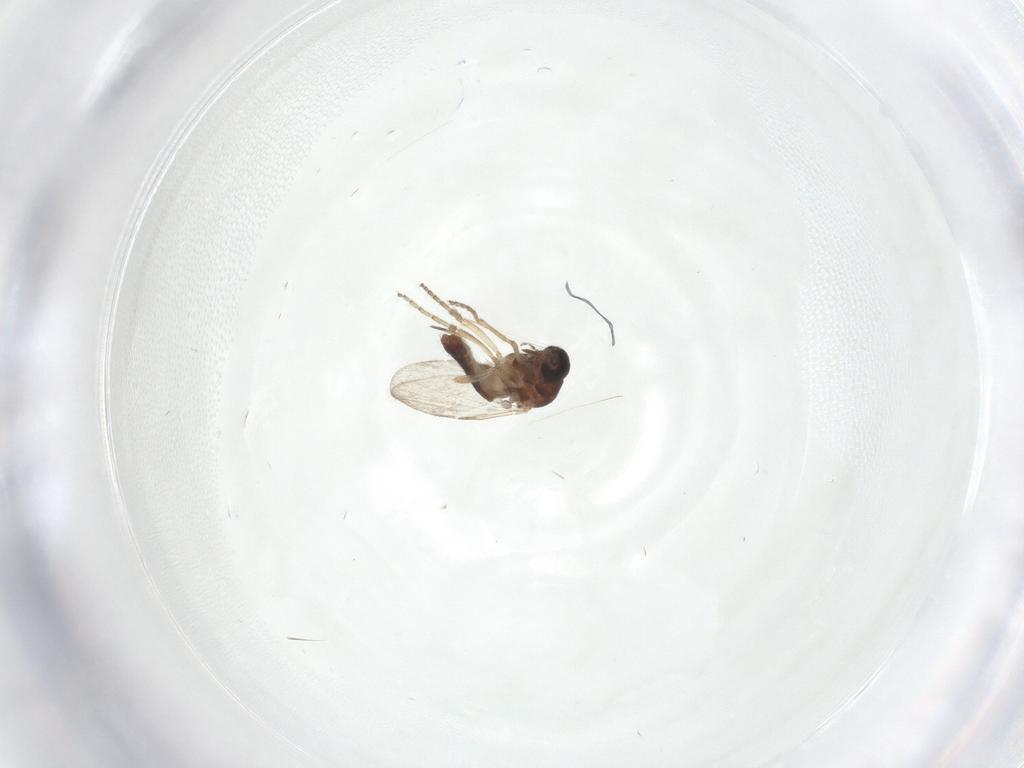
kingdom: Animalia
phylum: Arthropoda
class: Insecta
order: Diptera
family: Ceratopogonidae
